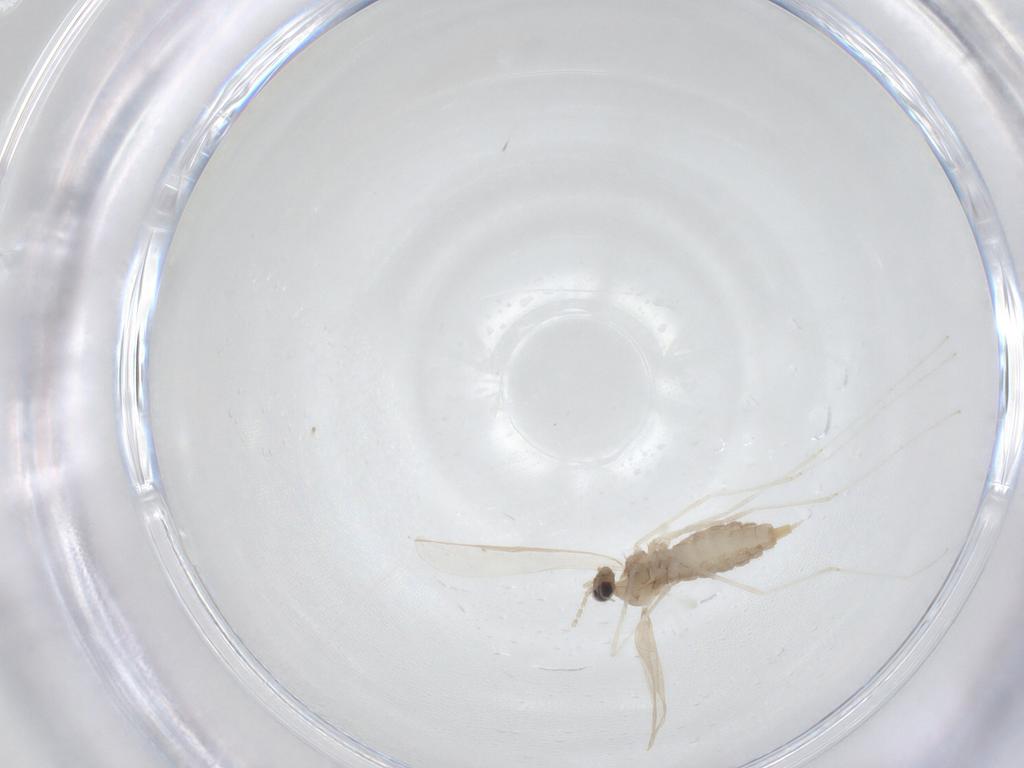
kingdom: Animalia
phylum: Arthropoda
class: Insecta
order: Diptera
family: Cecidomyiidae
